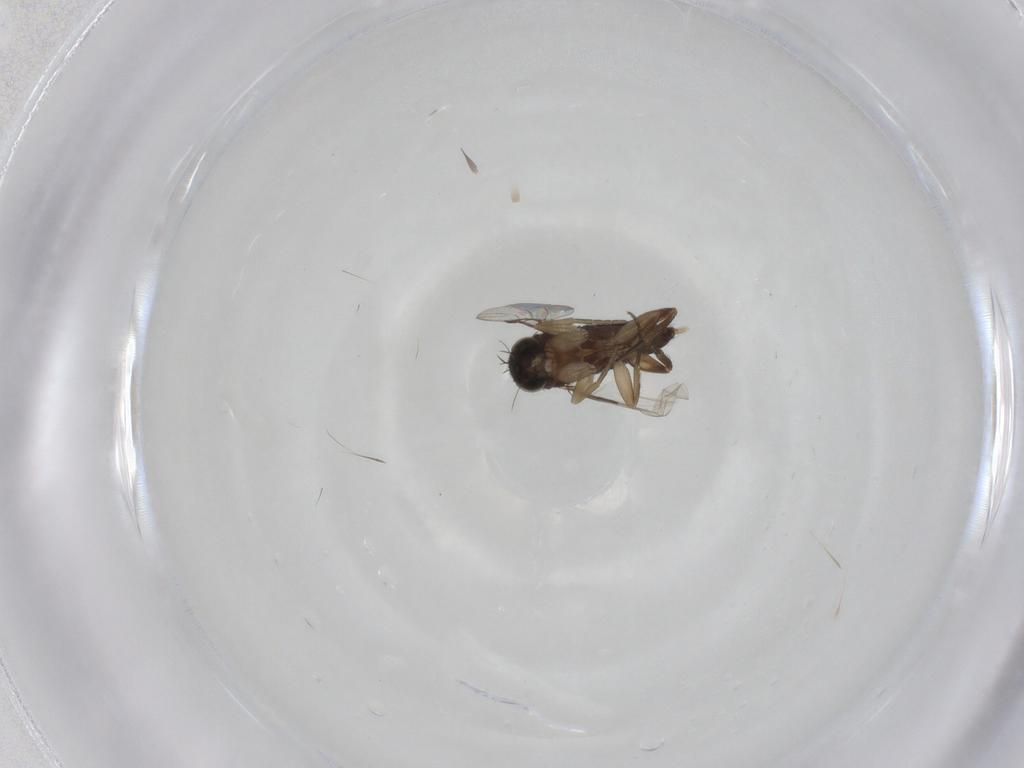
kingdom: Animalia
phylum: Arthropoda
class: Insecta
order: Diptera
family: Phoridae
